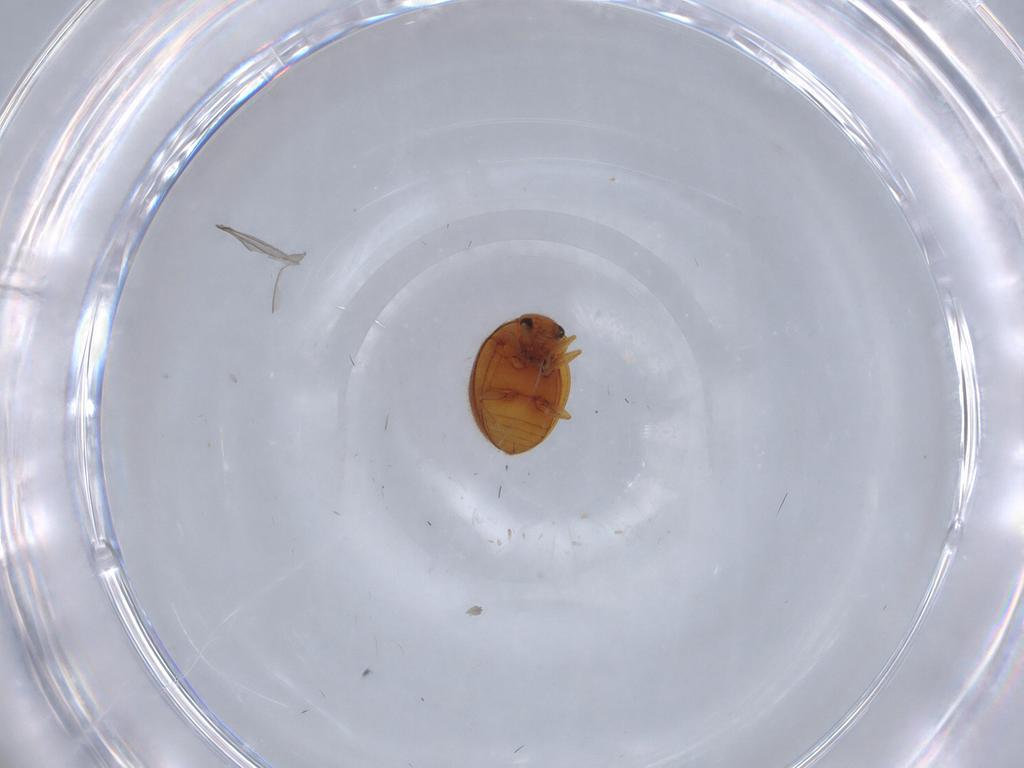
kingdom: Animalia
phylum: Arthropoda
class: Insecta
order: Coleoptera
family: Anamorphidae
